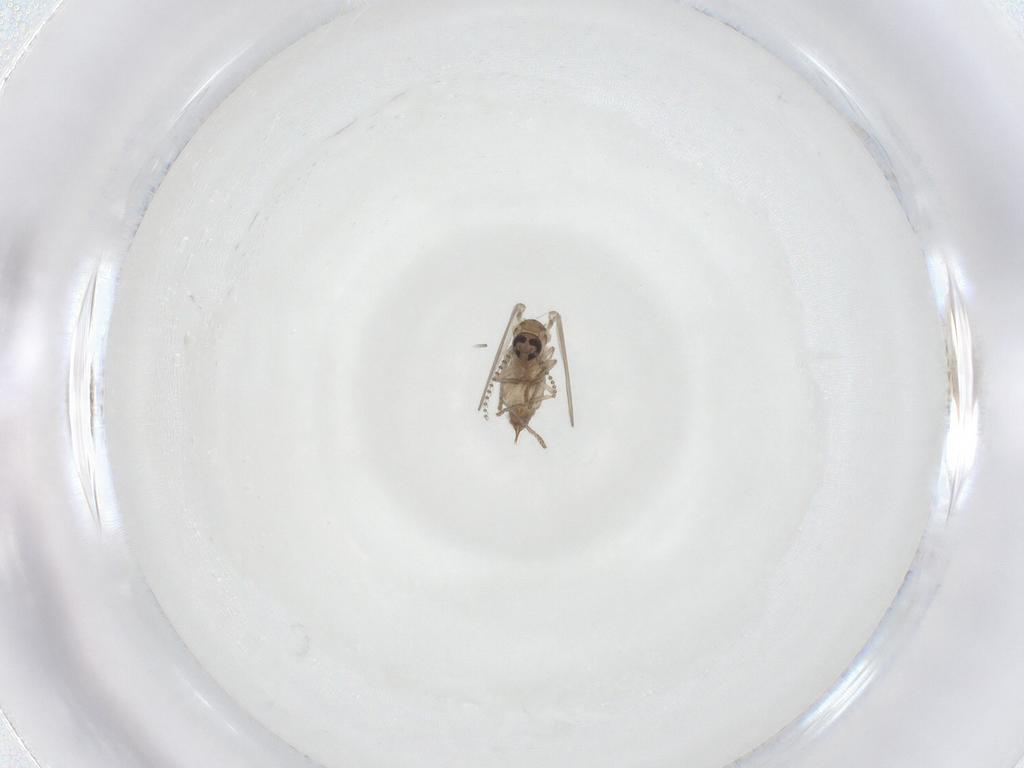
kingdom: Animalia
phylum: Arthropoda
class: Insecta
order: Diptera
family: Psychodidae
